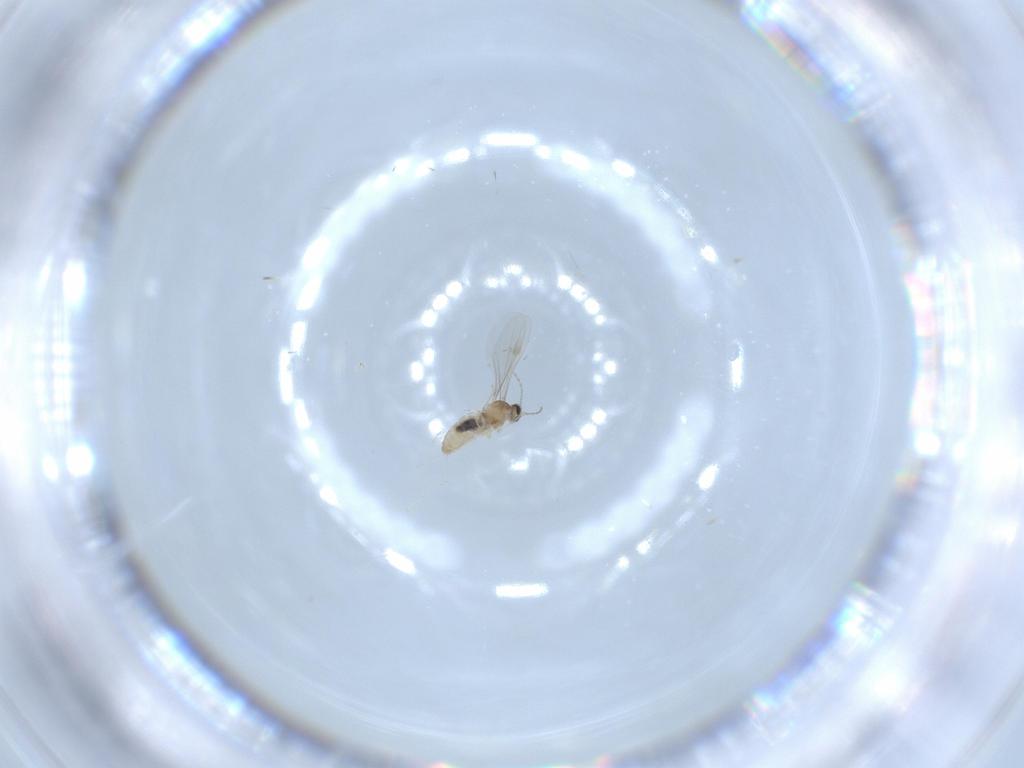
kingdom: Animalia
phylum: Arthropoda
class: Insecta
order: Diptera
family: Cecidomyiidae
